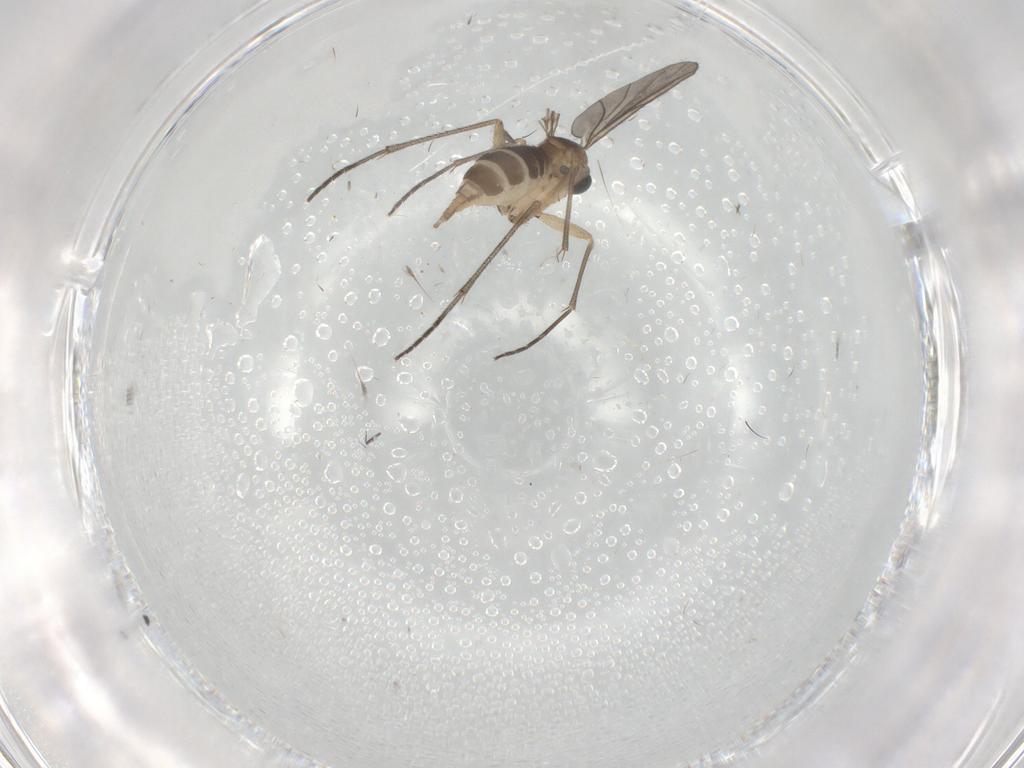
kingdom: Animalia
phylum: Arthropoda
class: Insecta
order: Diptera
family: Sciaridae
